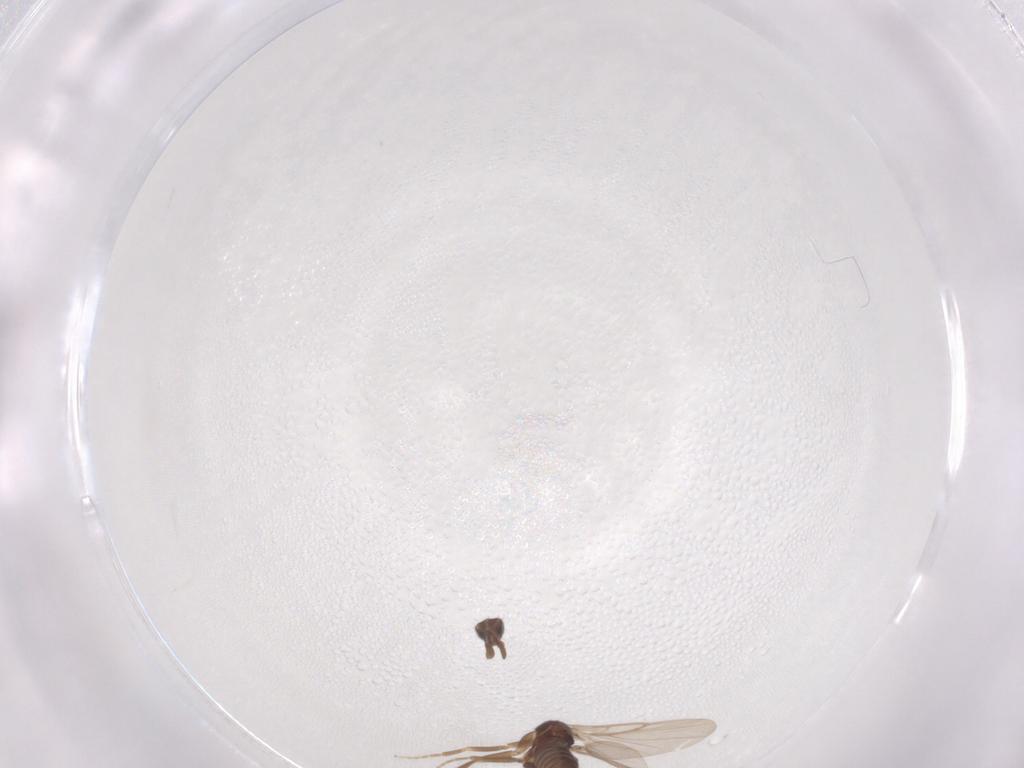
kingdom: Animalia
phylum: Arthropoda
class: Insecta
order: Diptera
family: Phoridae
